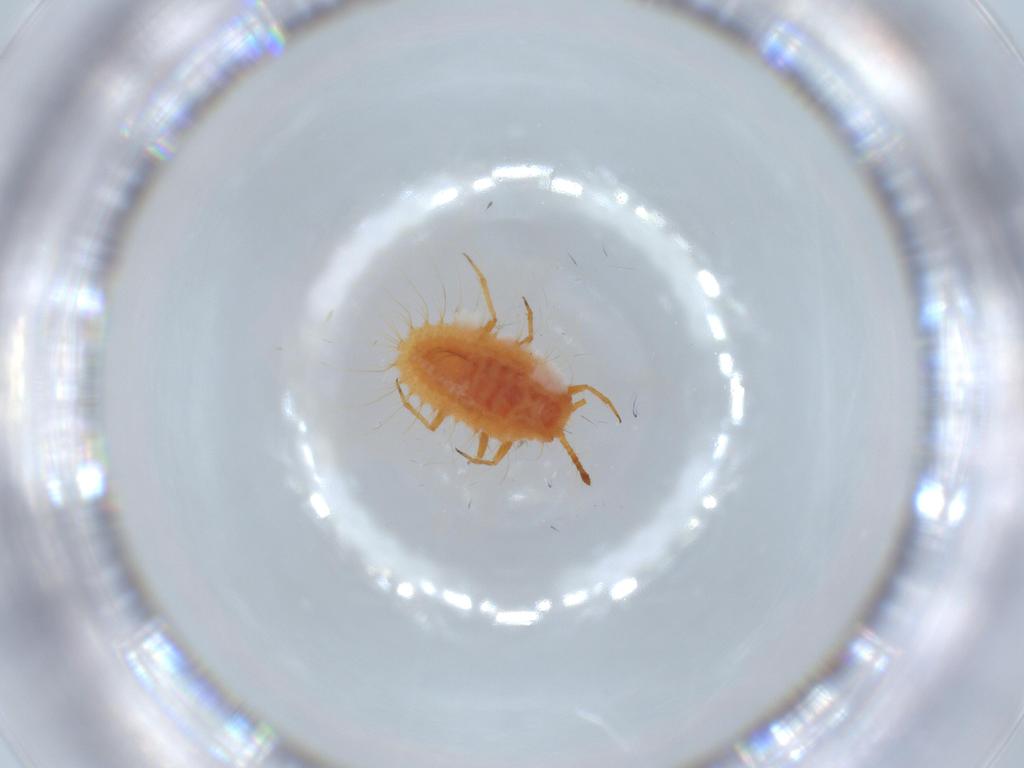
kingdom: Animalia
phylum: Arthropoda
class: Insecta
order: Hemiptera
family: Coccoidea_incertae_sedis
